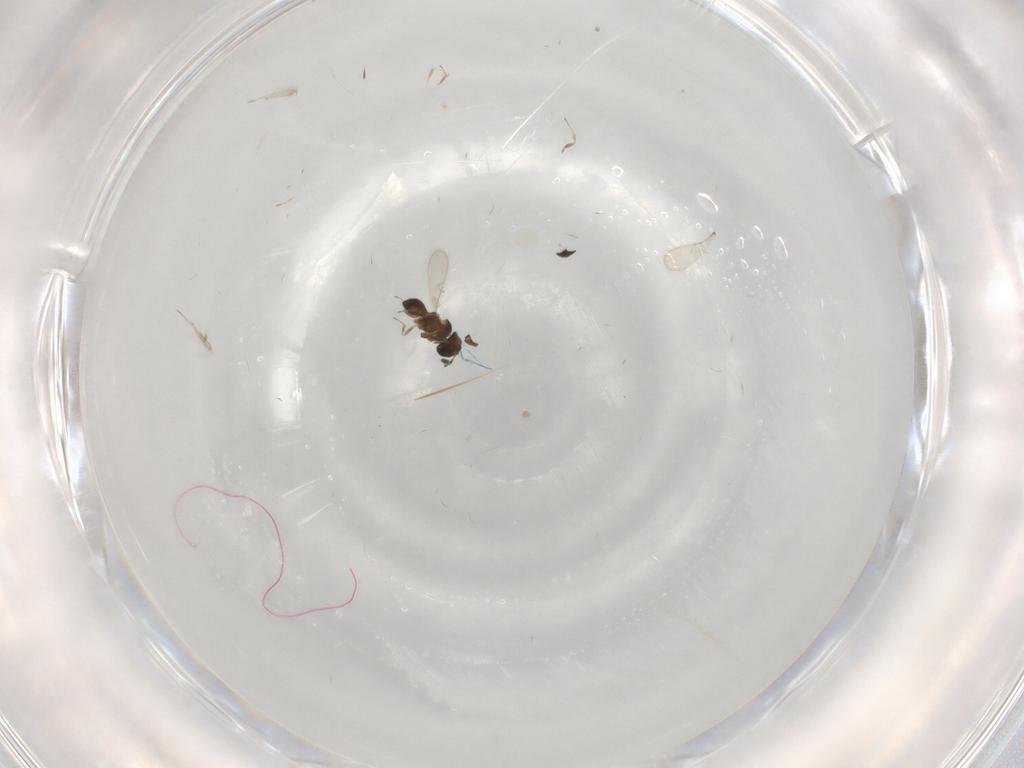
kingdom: Animalia
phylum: Arthropoda
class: Insecta
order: Hymenoptera
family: Scelionidae
